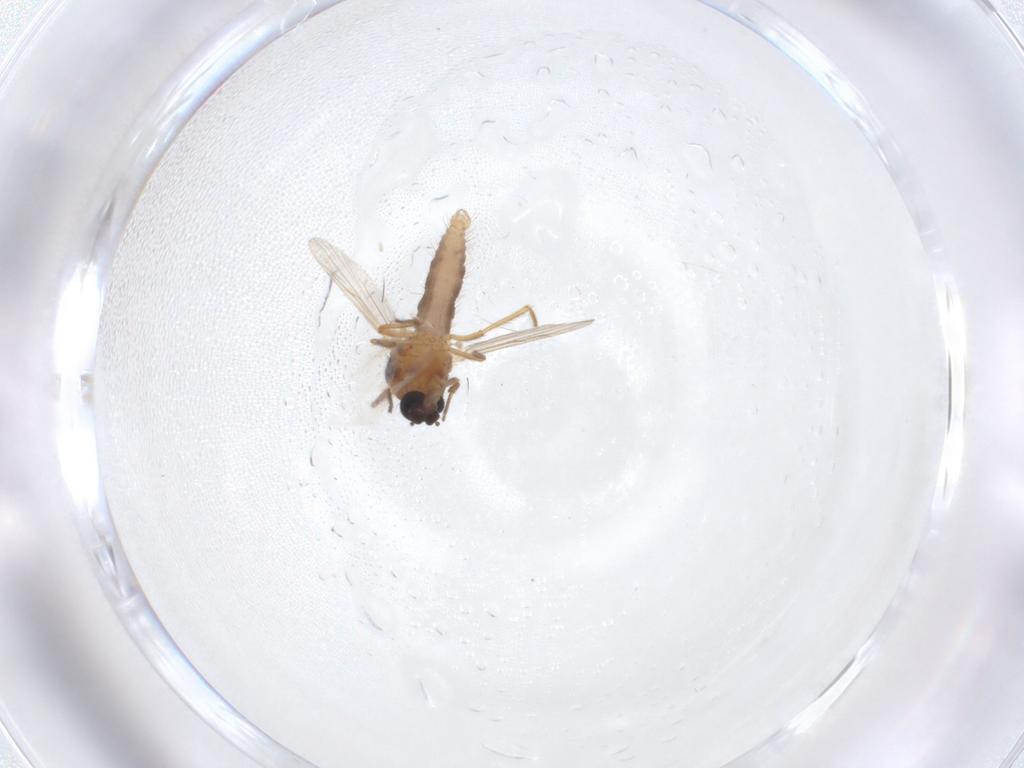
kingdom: Animalia
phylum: Arthropoda
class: Insecta
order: Diptera
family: Ceratopogonidae
